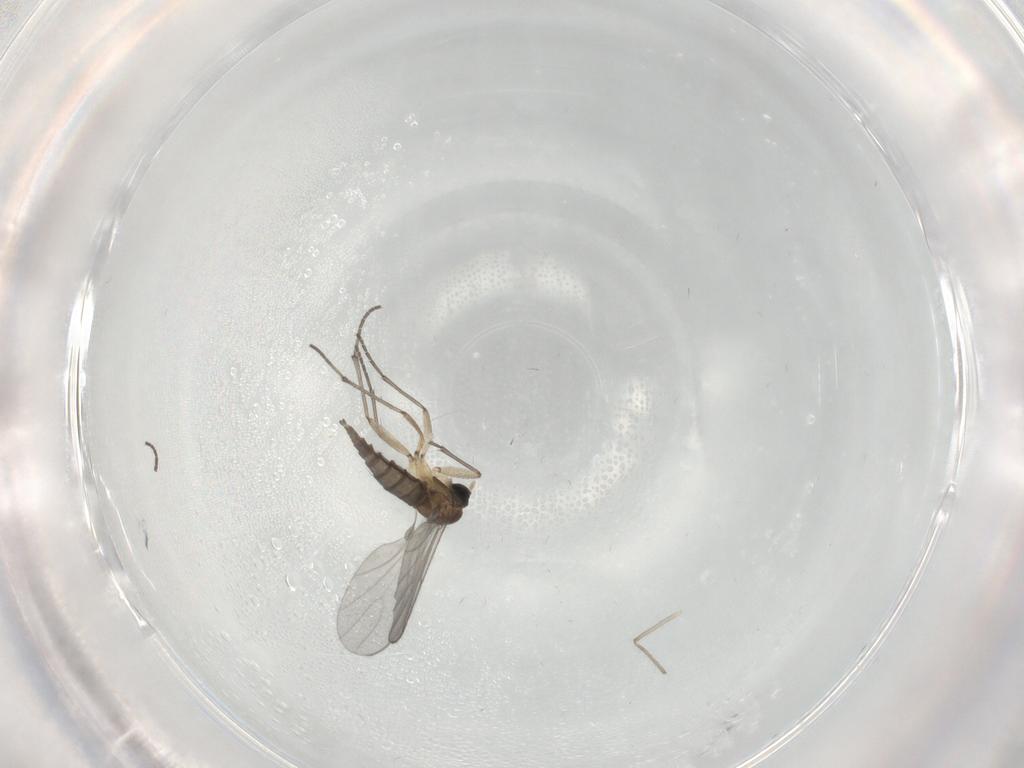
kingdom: Animalia
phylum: Arthropoda
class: Insecta
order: Diptera
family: Sciaridae
